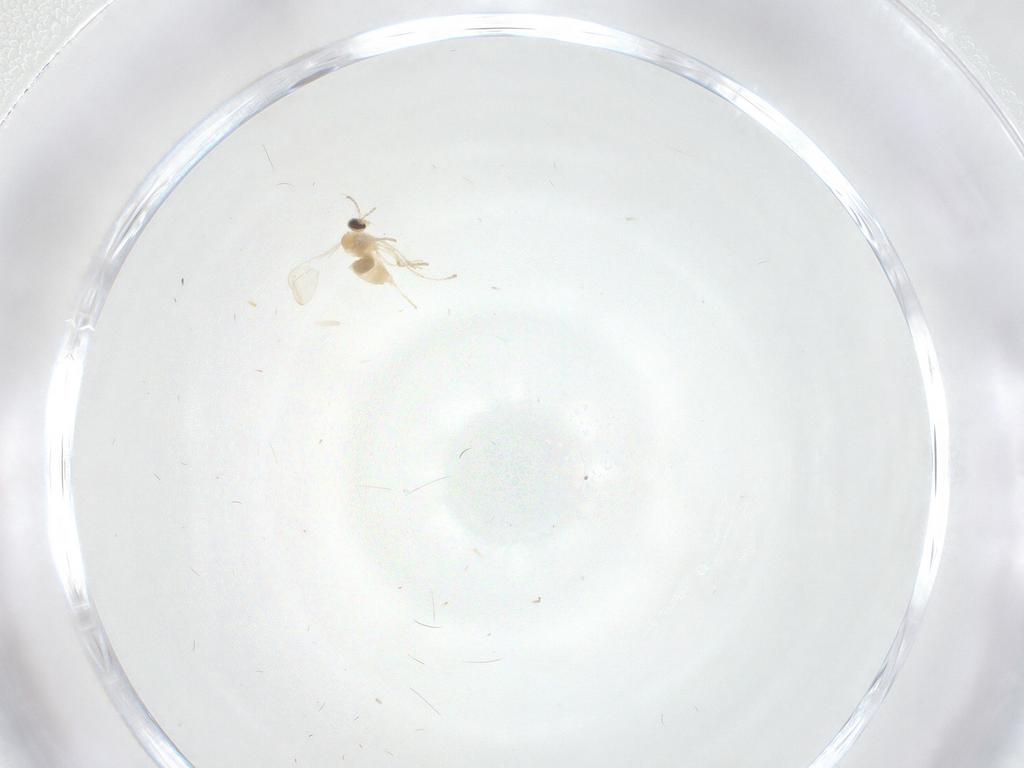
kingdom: Animalia
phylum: Arthropoda
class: Insecta
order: Diptera
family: Cecidomyiidae
